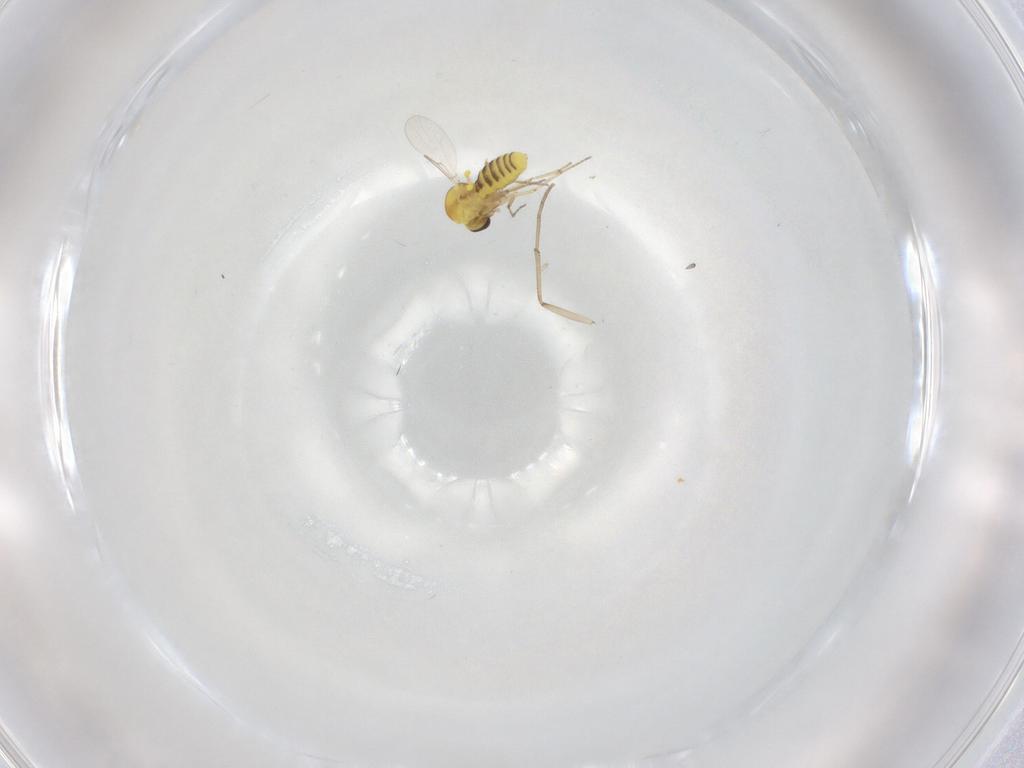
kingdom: Animalia
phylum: Arthropoda
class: Insecta
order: Diptera
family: Ceratopogonidae
